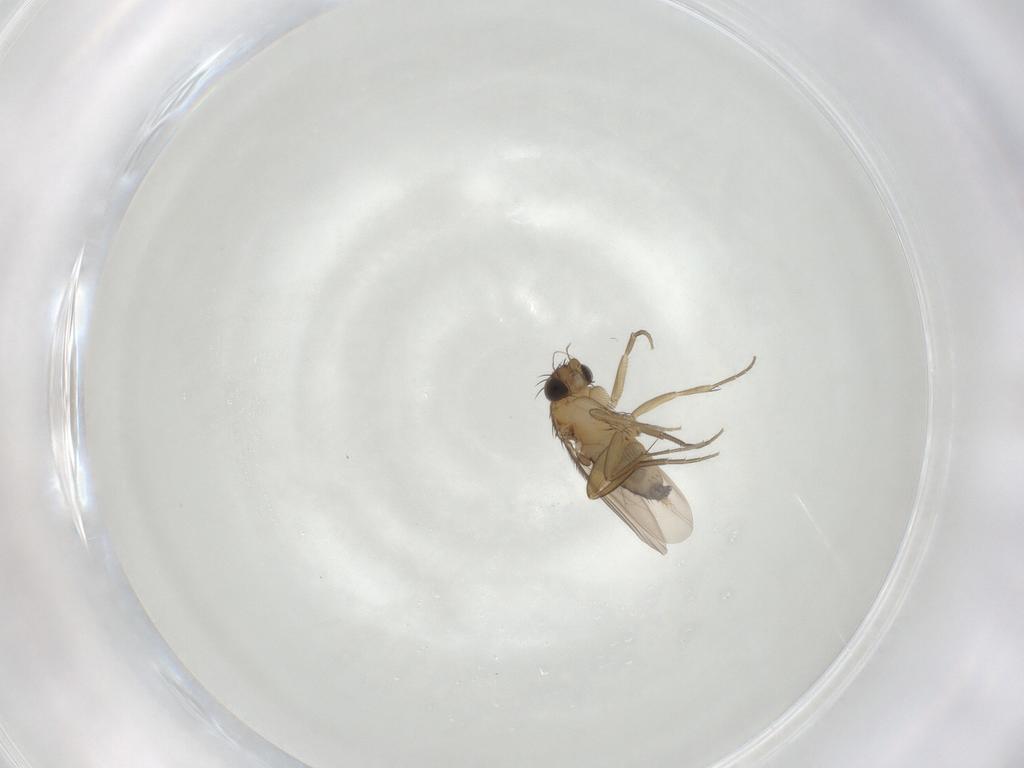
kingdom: Animalia
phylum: Arthropoda
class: Insecta
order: Diptera
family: Phoridae
